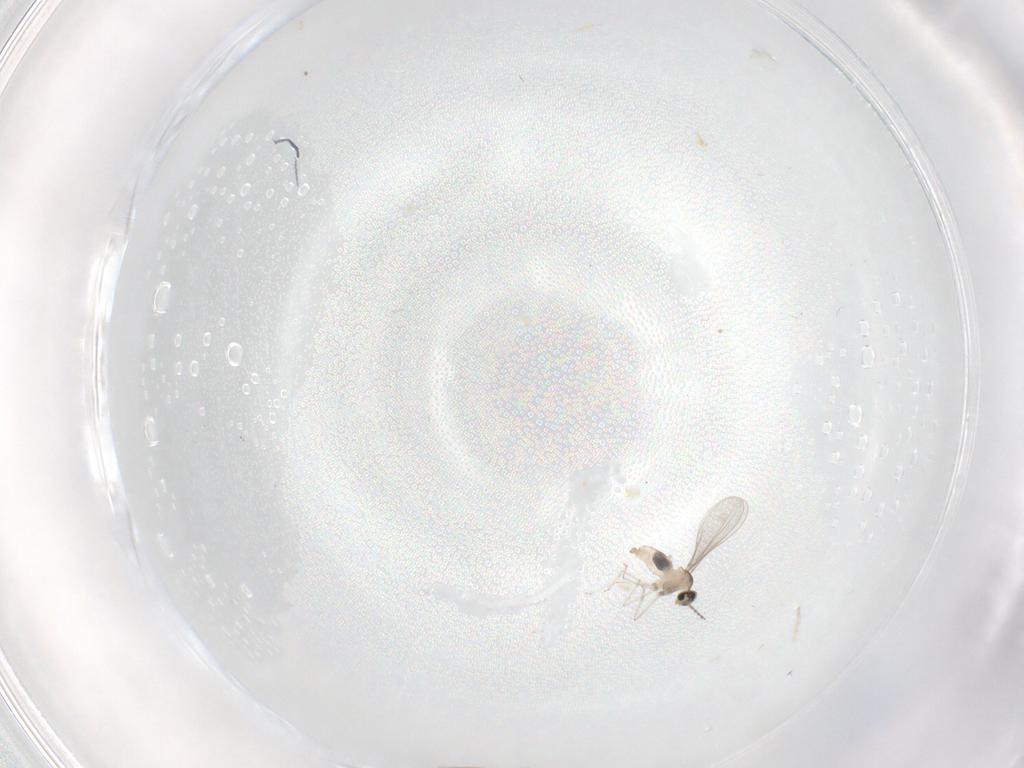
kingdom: Animalia
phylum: Arthropoda
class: Insecta
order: Diptera
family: Cecidomyiidae
